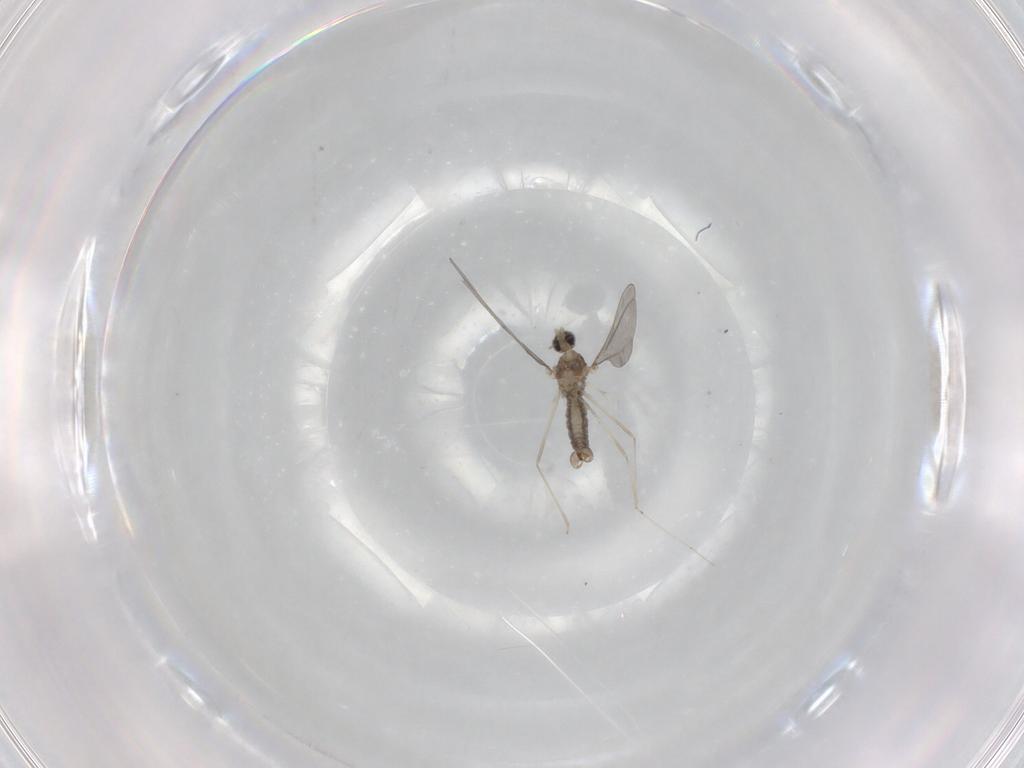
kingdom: Animalia
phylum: Arthropoda
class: Insecta
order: Diptera
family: Cecidomyiidae
